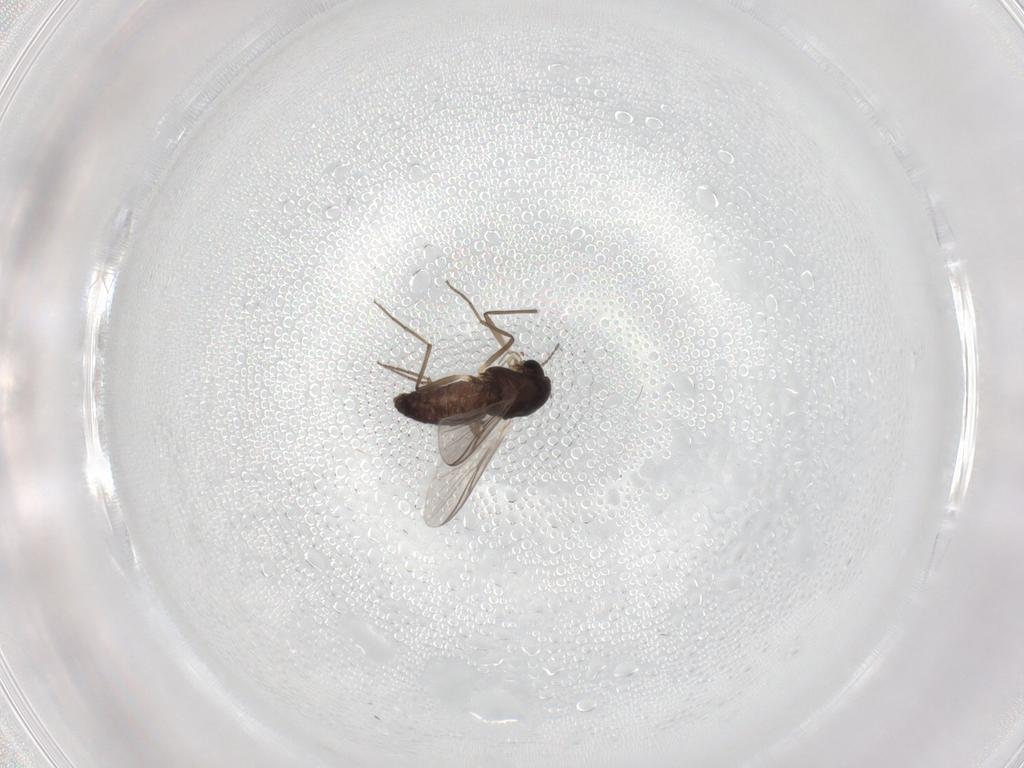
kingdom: Animalia
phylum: Arthropoda
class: Insecta
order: Diptera
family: Chironomidae
